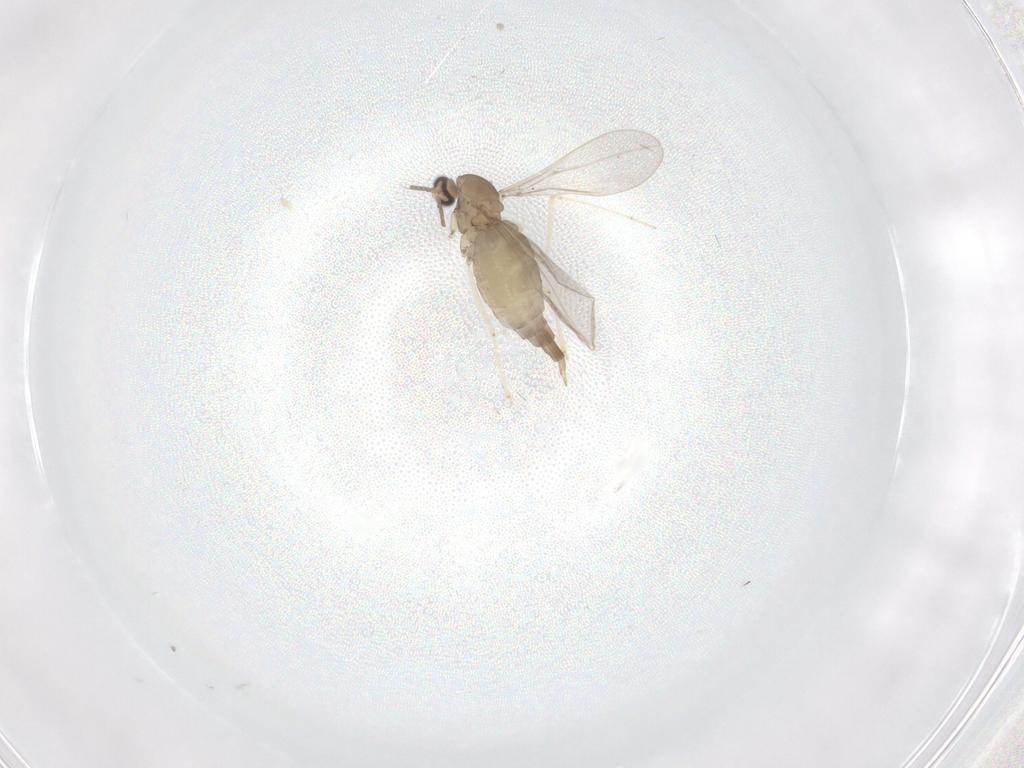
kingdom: Animalia
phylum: Arthropoda
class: Insecta
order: Diptera
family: Cecidomyiidae
